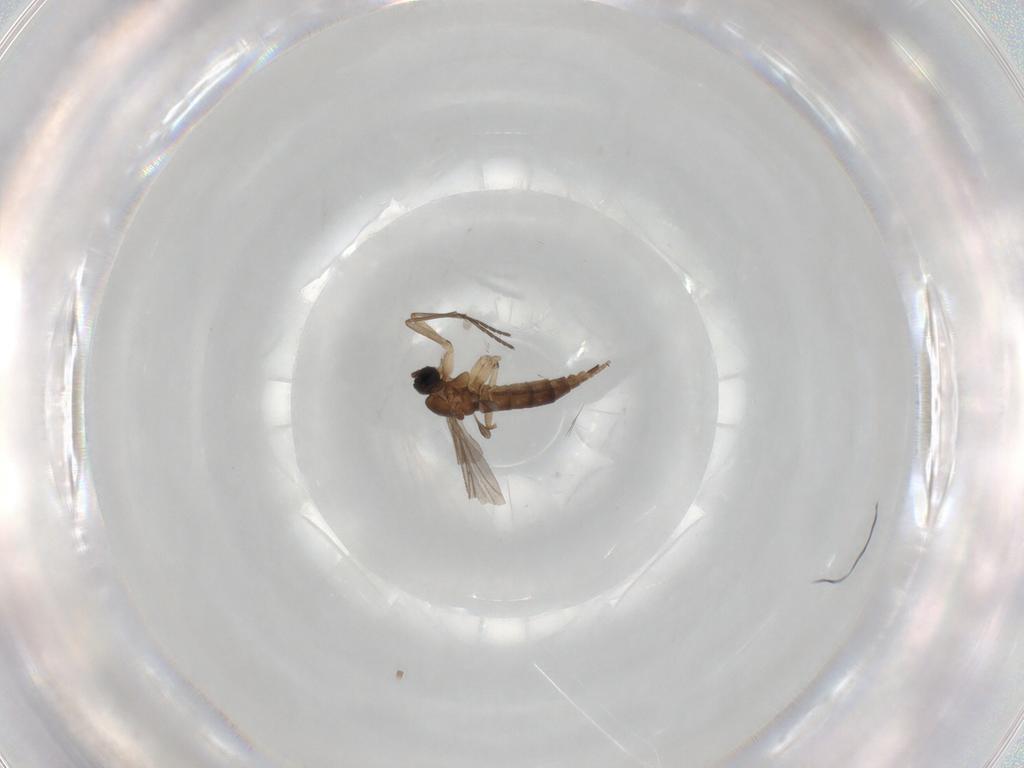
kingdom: Animalia
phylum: Arthropoda
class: Insecta
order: Diptera
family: Sciaridae
